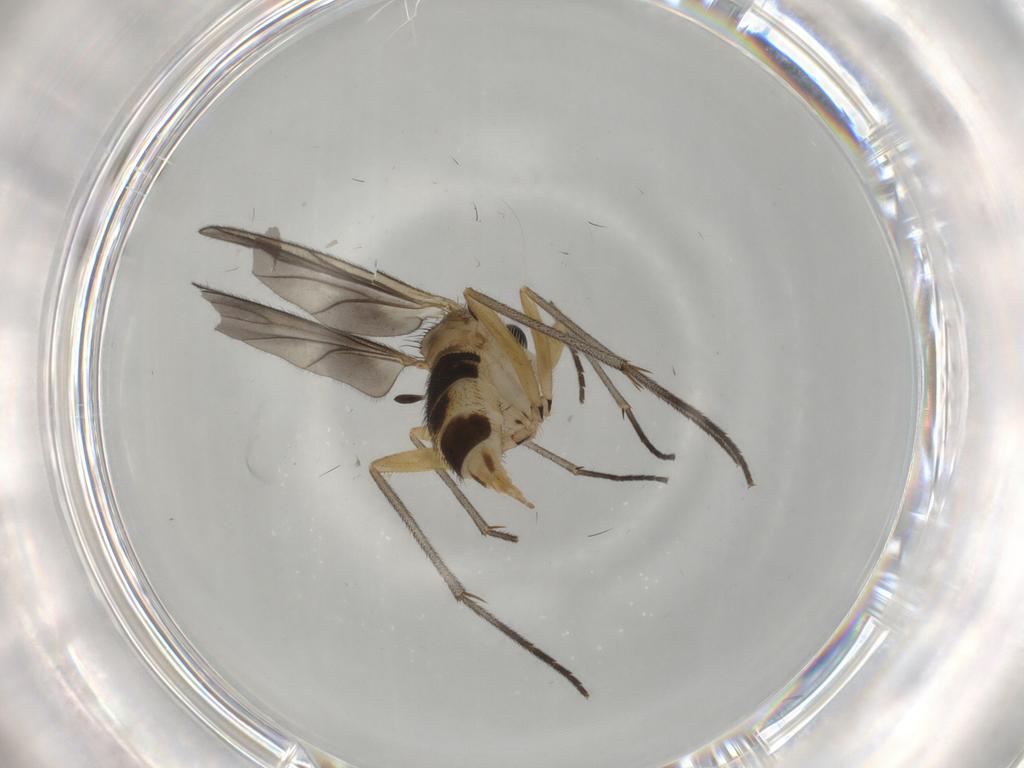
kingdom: Animalia
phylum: Arthropoda
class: Insecta
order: Diptera
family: Sciaridae
